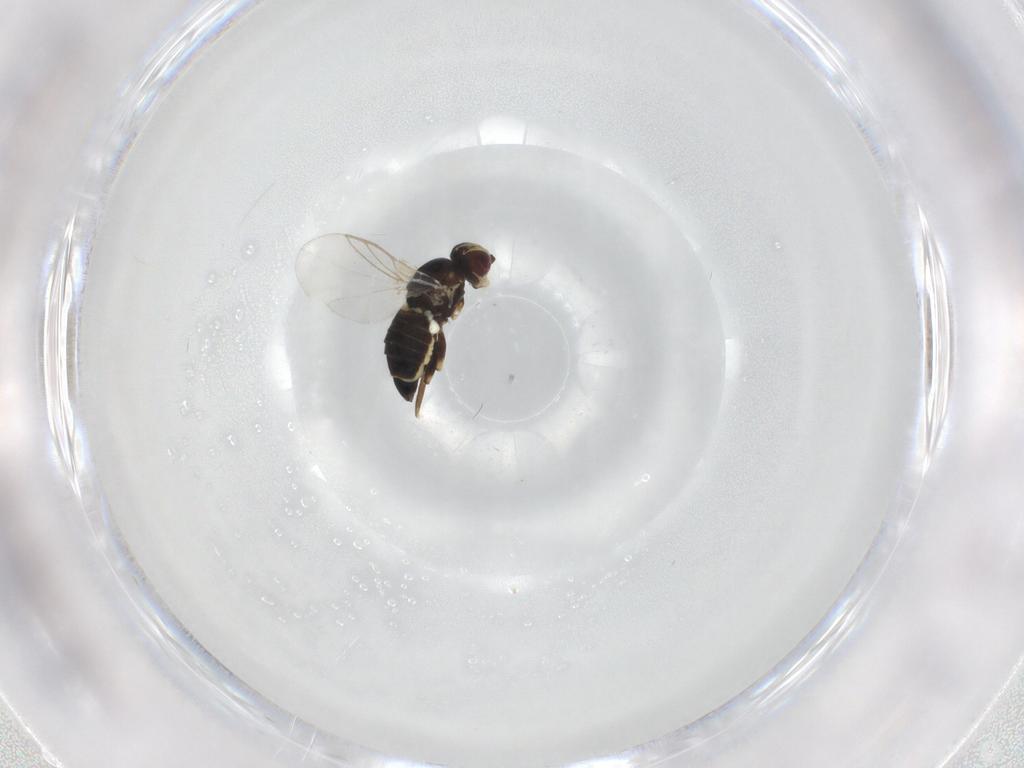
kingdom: Animalia
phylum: Arthropoda
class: Insecta
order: Diptera
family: Agromyzidae
